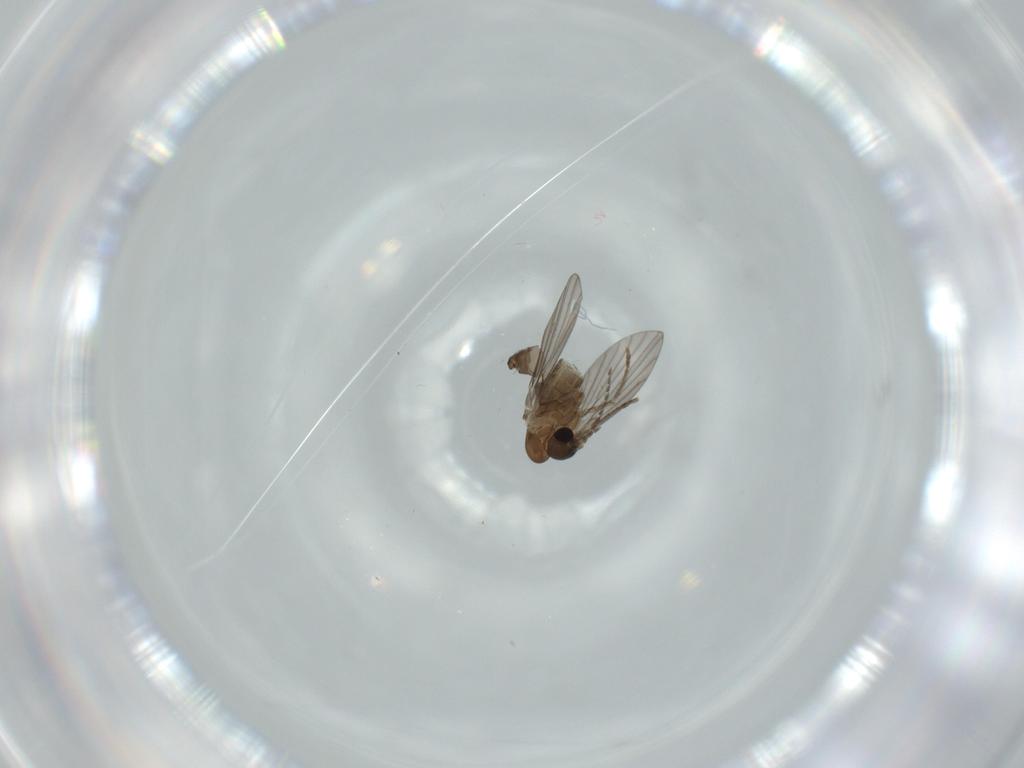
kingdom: Animalia
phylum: Arthropoda
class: Insecta
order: Diptera
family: Psychodidae
